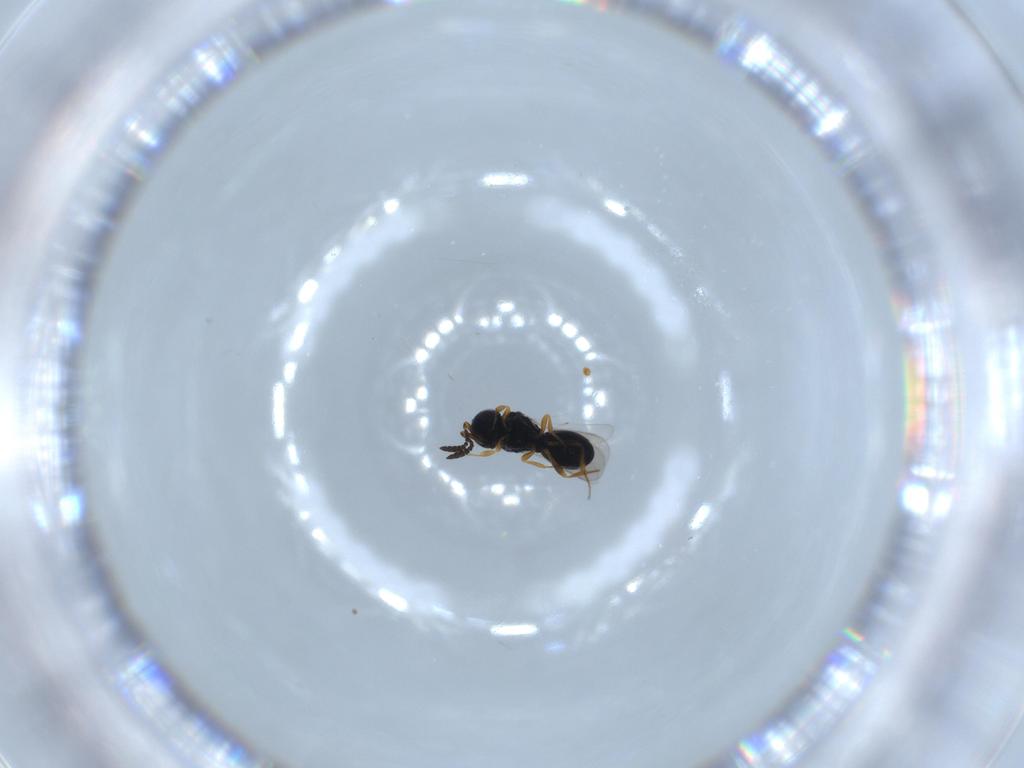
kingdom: Animalia
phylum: Arthropoda
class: Insecta
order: Hymenoptera
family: Scelionidae
